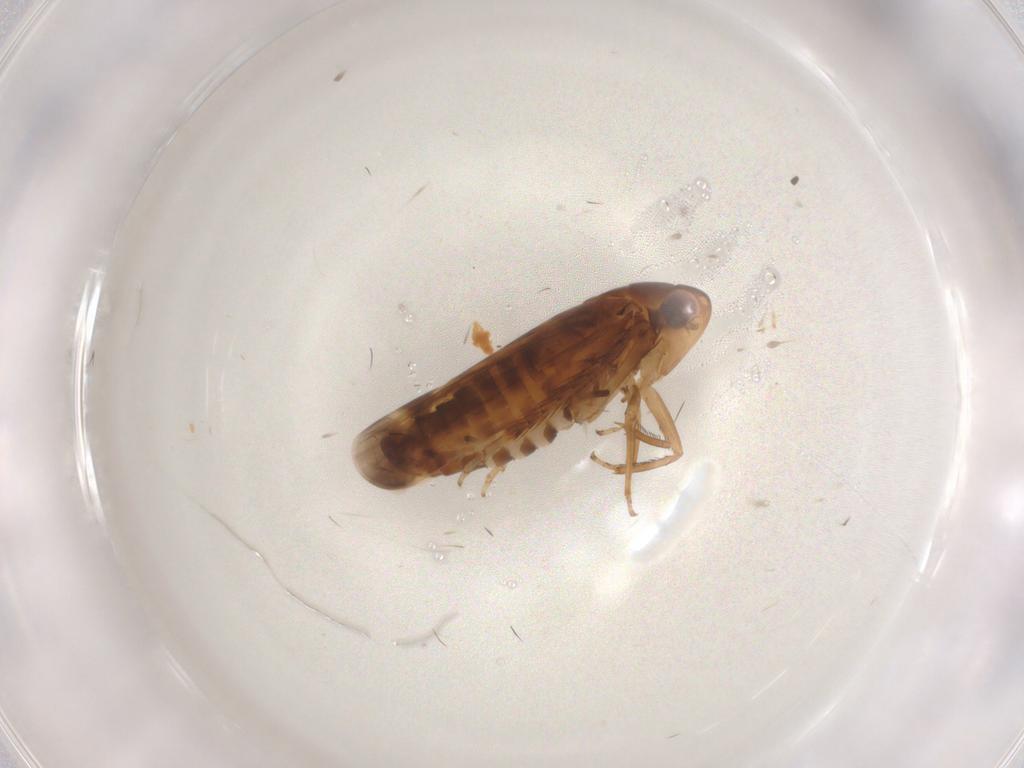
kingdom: Animalia
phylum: Arthropoda
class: Insecta
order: Hemiptera
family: Cicadellidae
